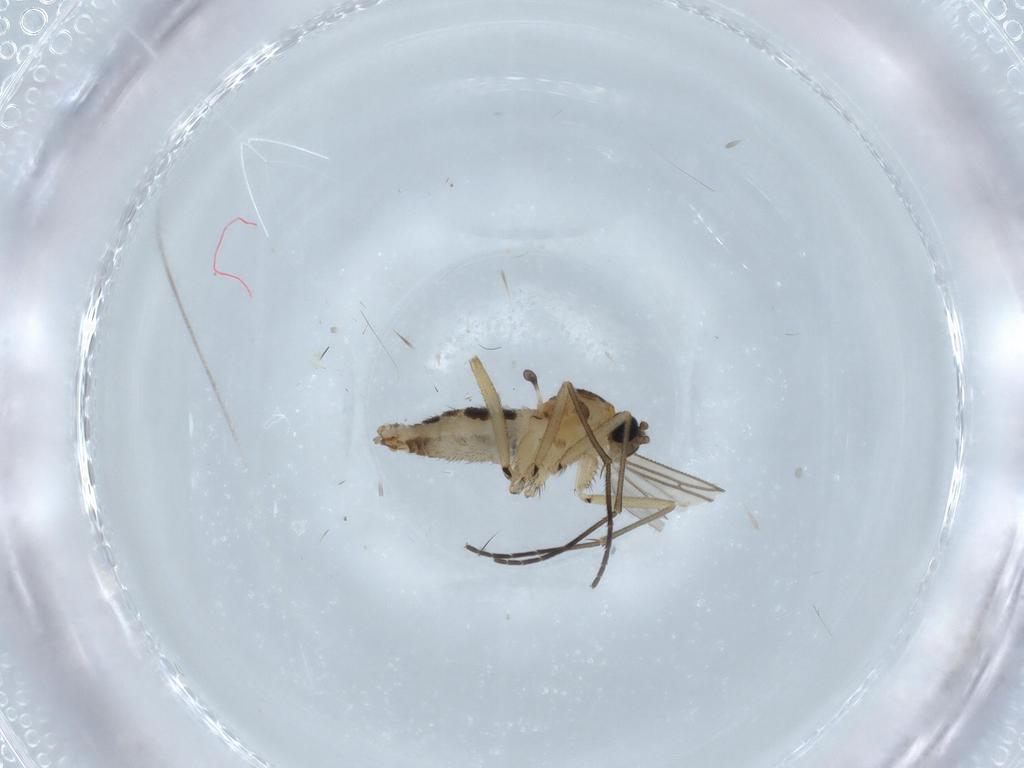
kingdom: Animalia
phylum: Arthropoda
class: Insecta
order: Diptera
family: Sciaridae
